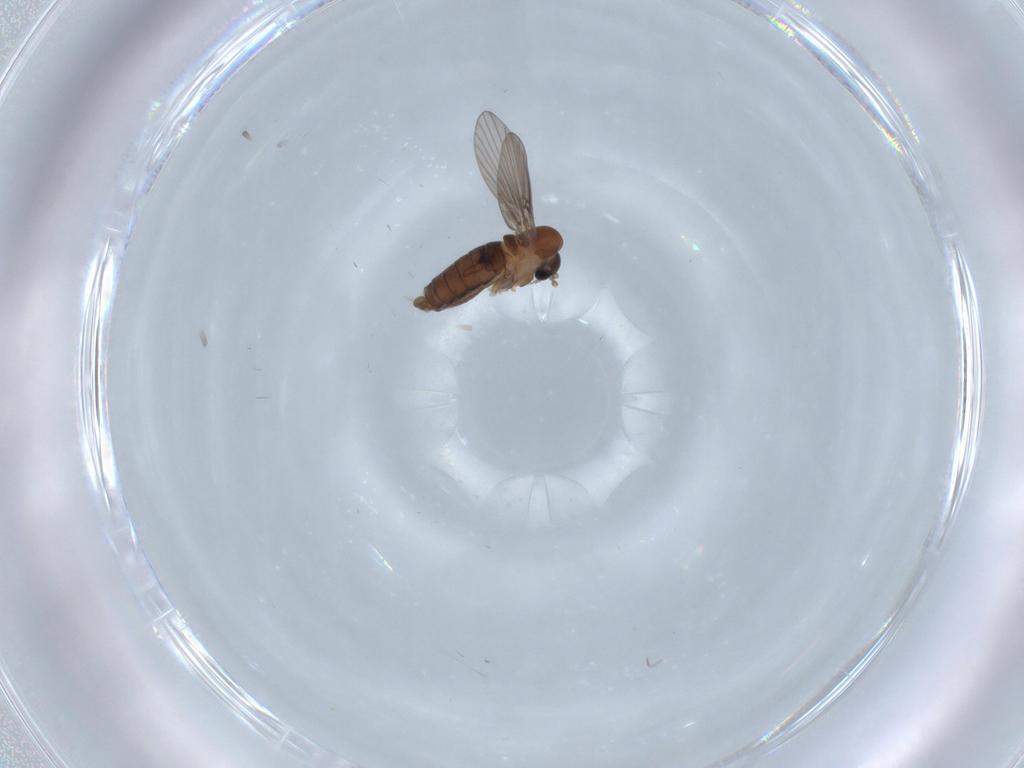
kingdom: Animalia
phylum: Arthropoda
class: Insecta
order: Diptera
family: Psychodidae
